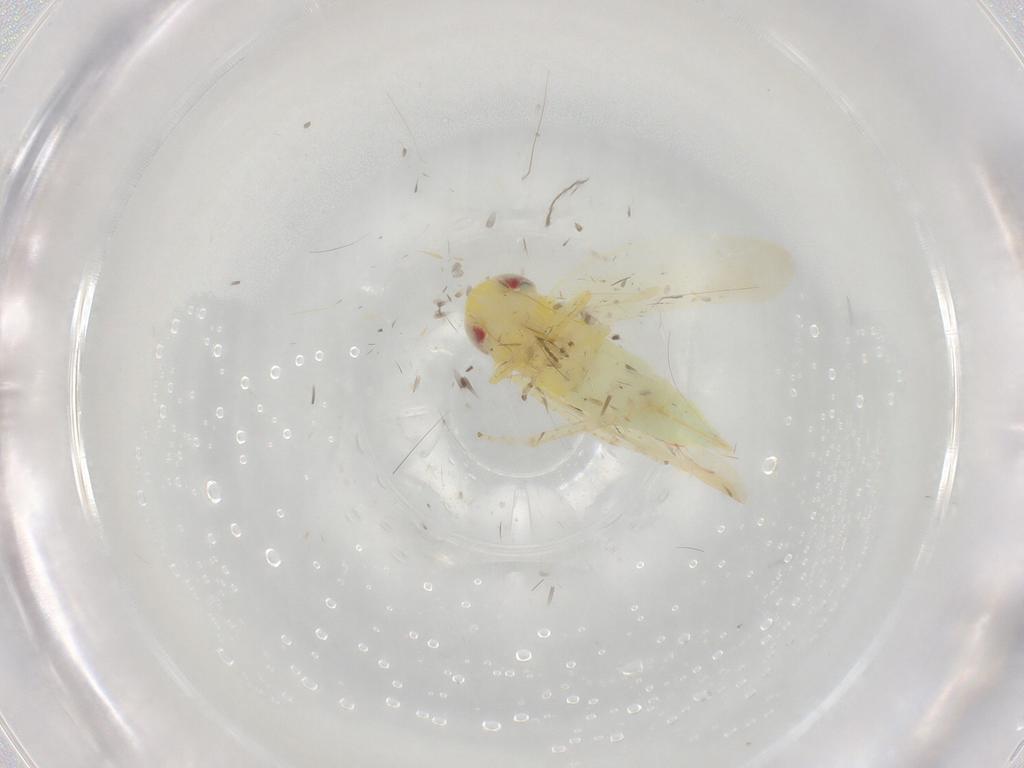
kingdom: Animalia
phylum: Arthropoda
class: Insecta
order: Hemiptera
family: Cicadellidae
